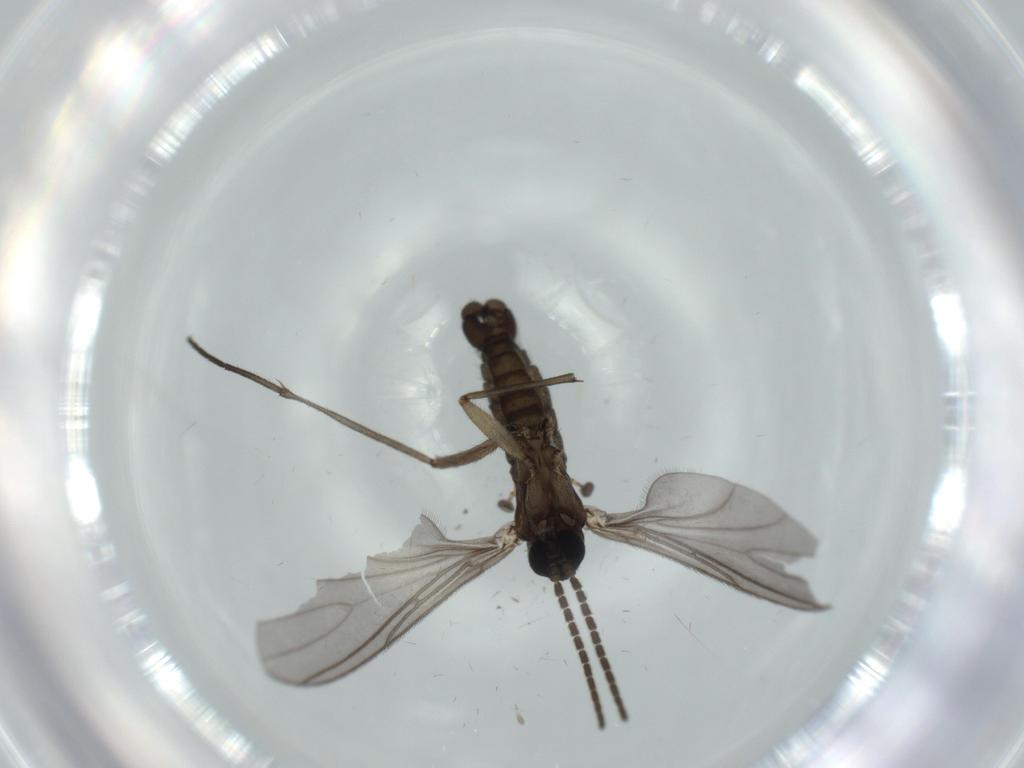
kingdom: Animalia
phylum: Arthropoda
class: Insecta
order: Diptera
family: Sciaridae
